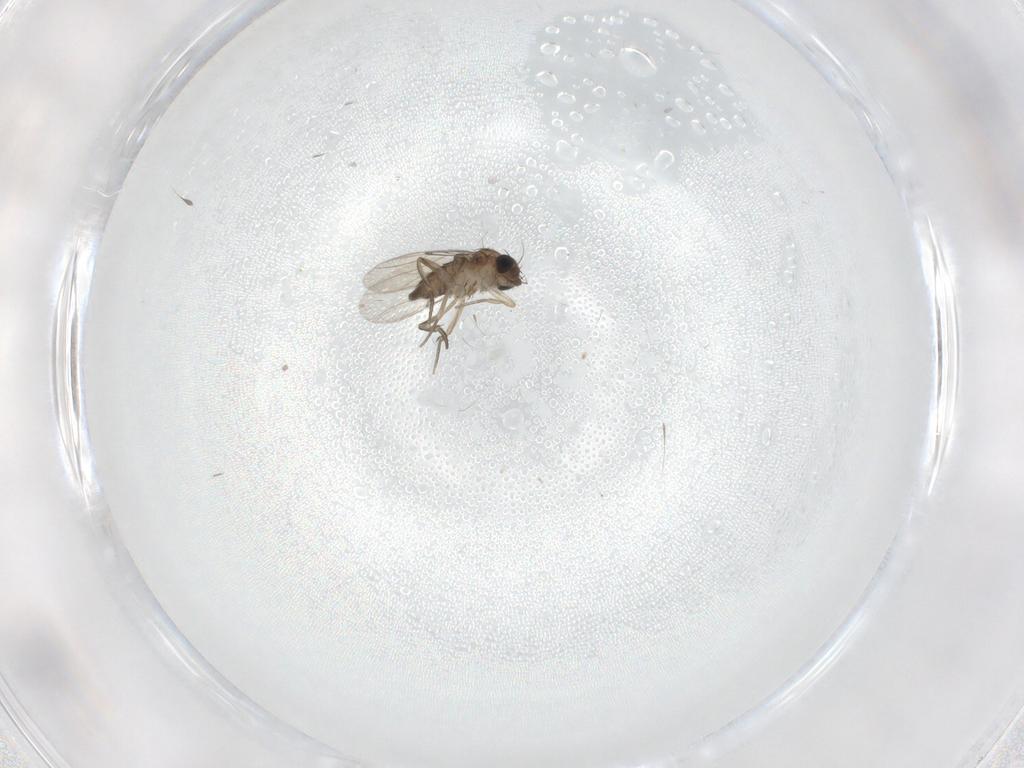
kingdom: Animalia
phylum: Arthropoda
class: Insecta
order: Diptera
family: Phoridae
